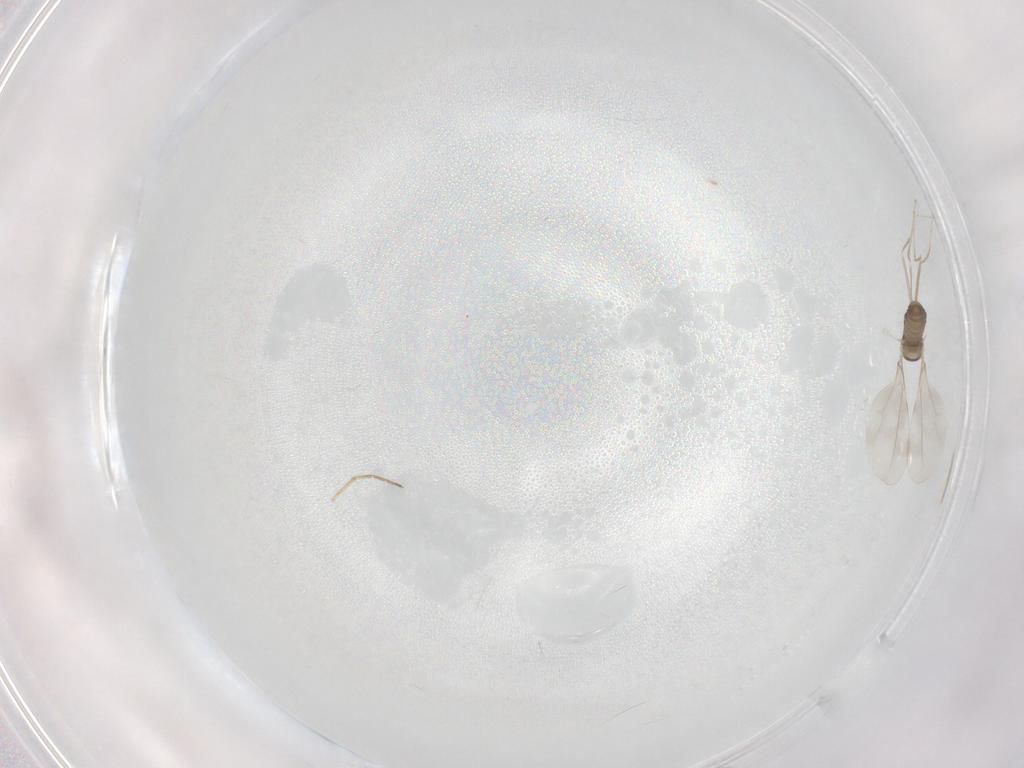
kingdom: Animalia
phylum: Arthropoda
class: Insecta
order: Diptera
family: Cecidomyiidae
